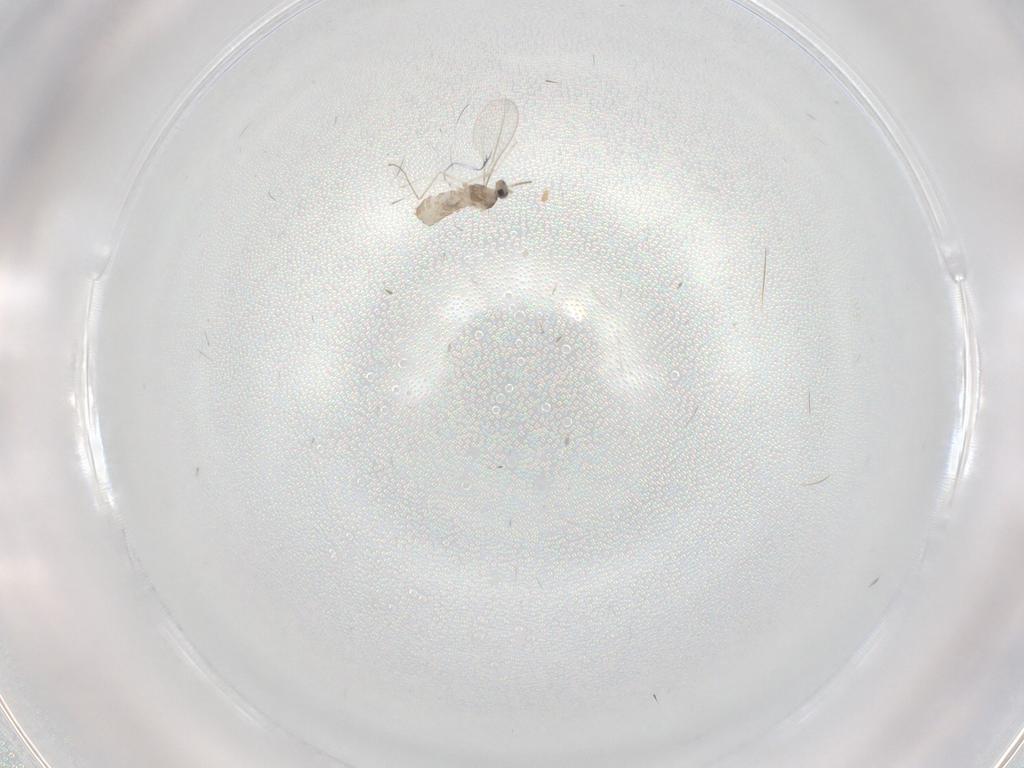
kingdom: Animalia
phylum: Arthropoda
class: Insecta
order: Diptera
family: Cecidomyiidae
